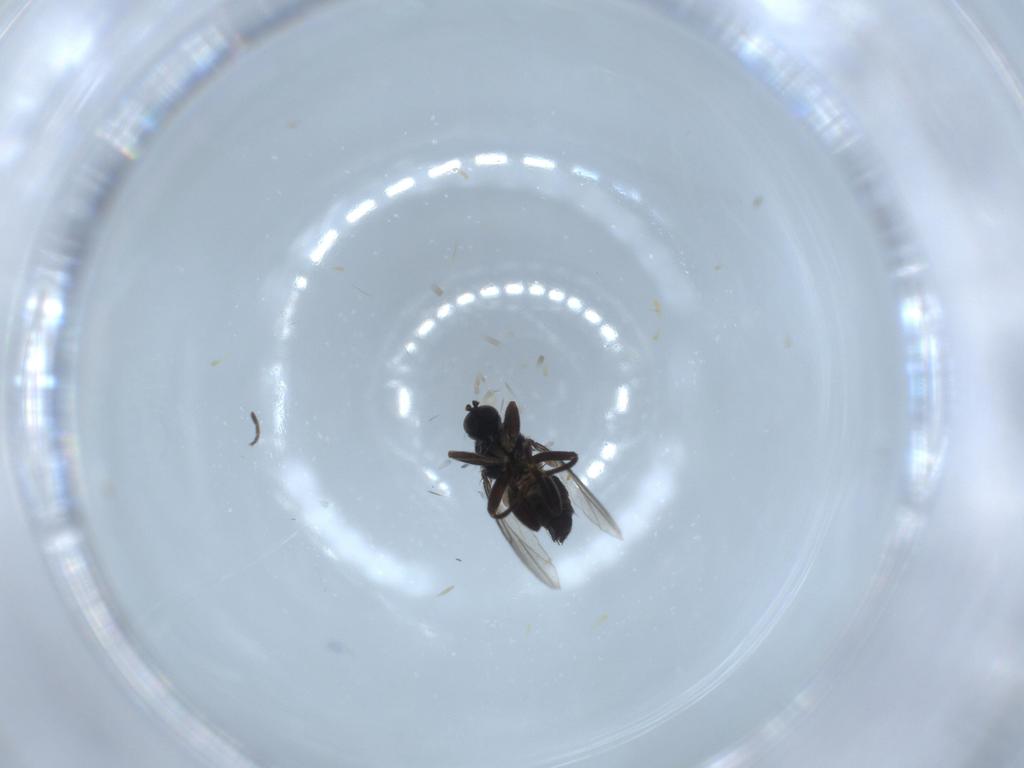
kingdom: Animalia
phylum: Arthropoda
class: Insecta
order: Diptera
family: Hybotidae
